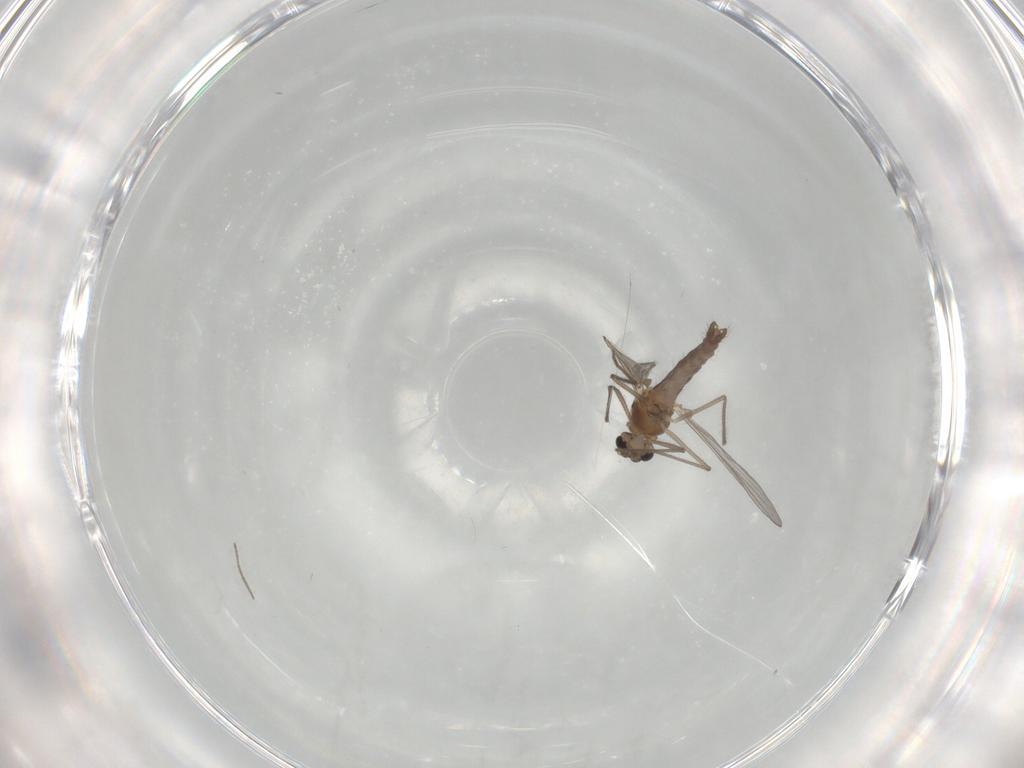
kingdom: Animalia
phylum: Arthropoda
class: Insecta
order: Diptera
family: Chironomidae
